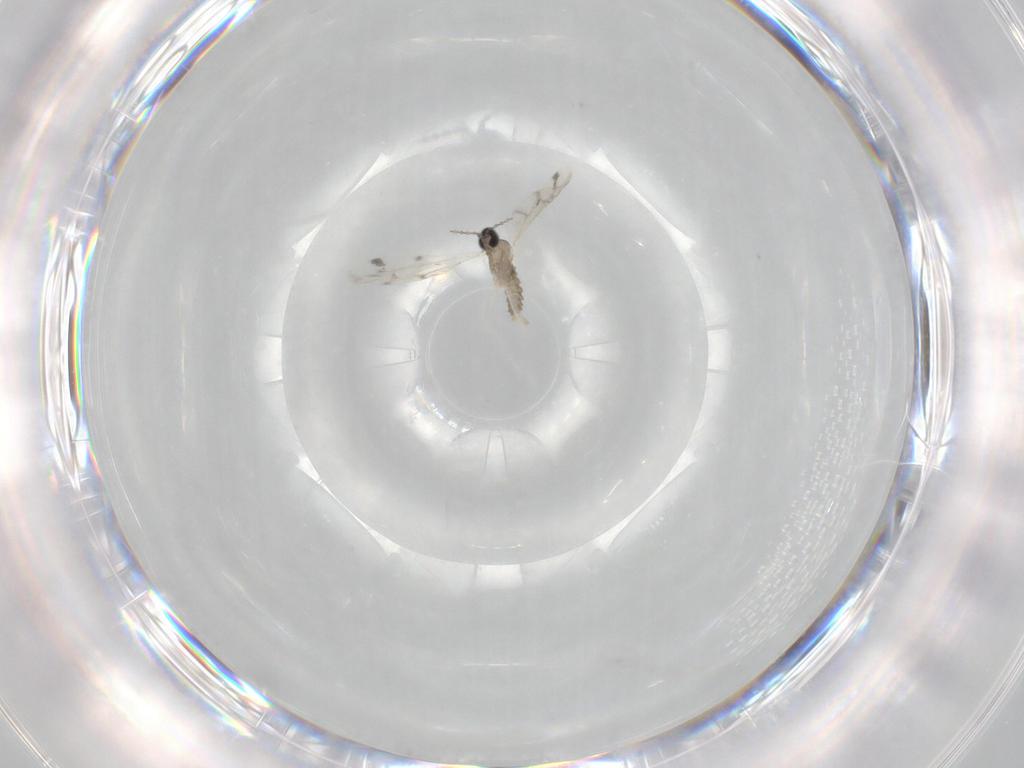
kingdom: Animalia
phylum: Arthropoda
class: Insecta
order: Diptera
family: Cecidomyiidae
